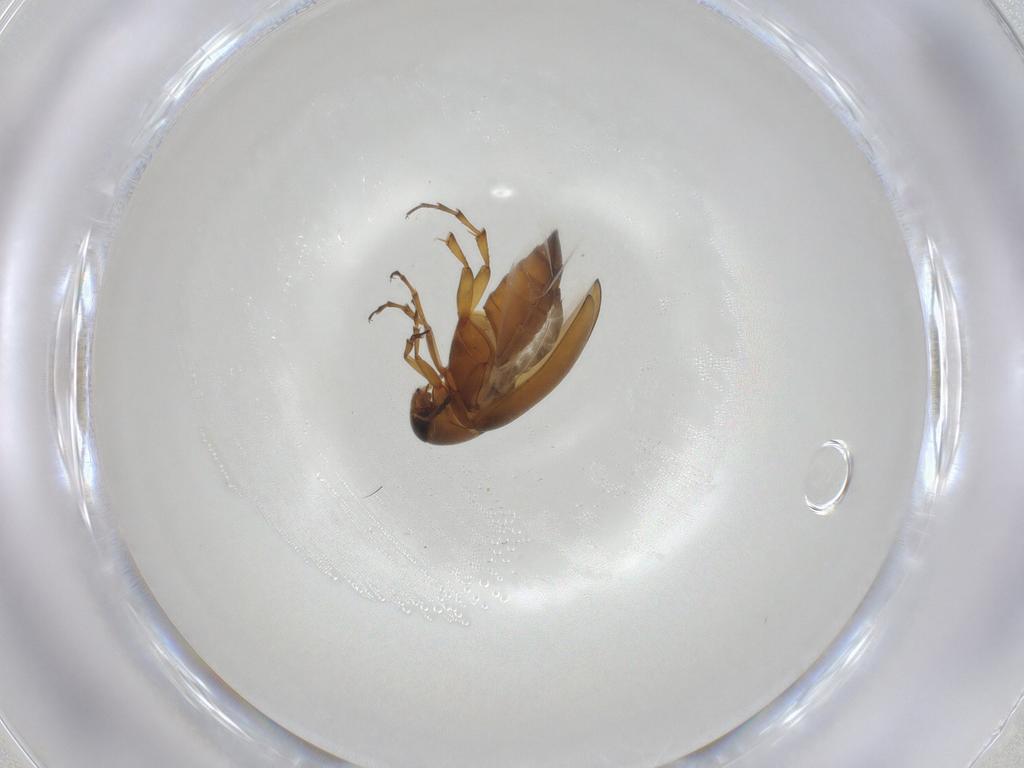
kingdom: Animalia
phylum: Arthropoda
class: Insecta
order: Coleoptera
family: Scraptiidae
